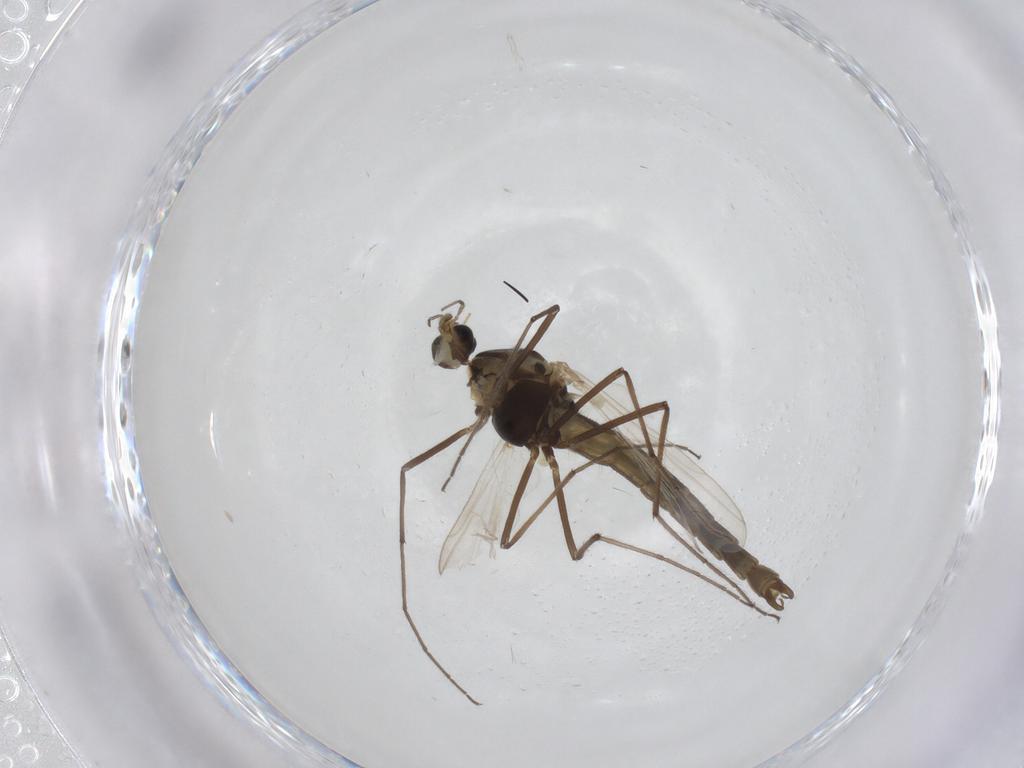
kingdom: Animalia
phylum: Arthropoda
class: Insecta
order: Diptera
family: Chironomidae
